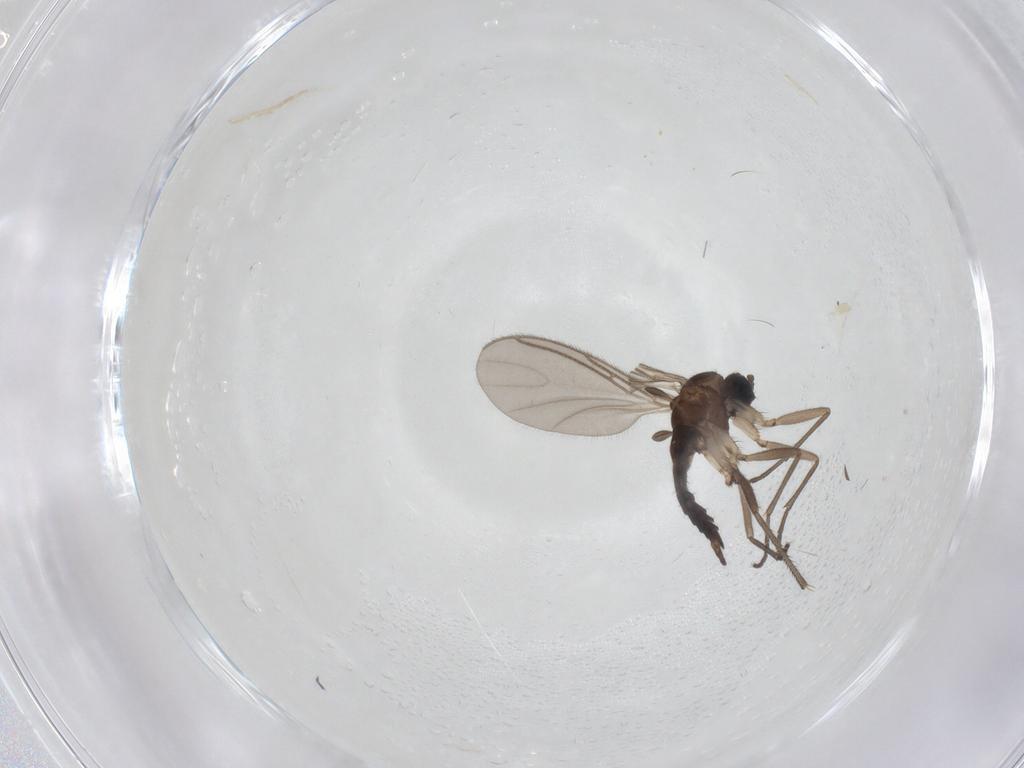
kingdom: Animalia
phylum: Arthropoda
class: Insecta
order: Diptera
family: Sciaridae
